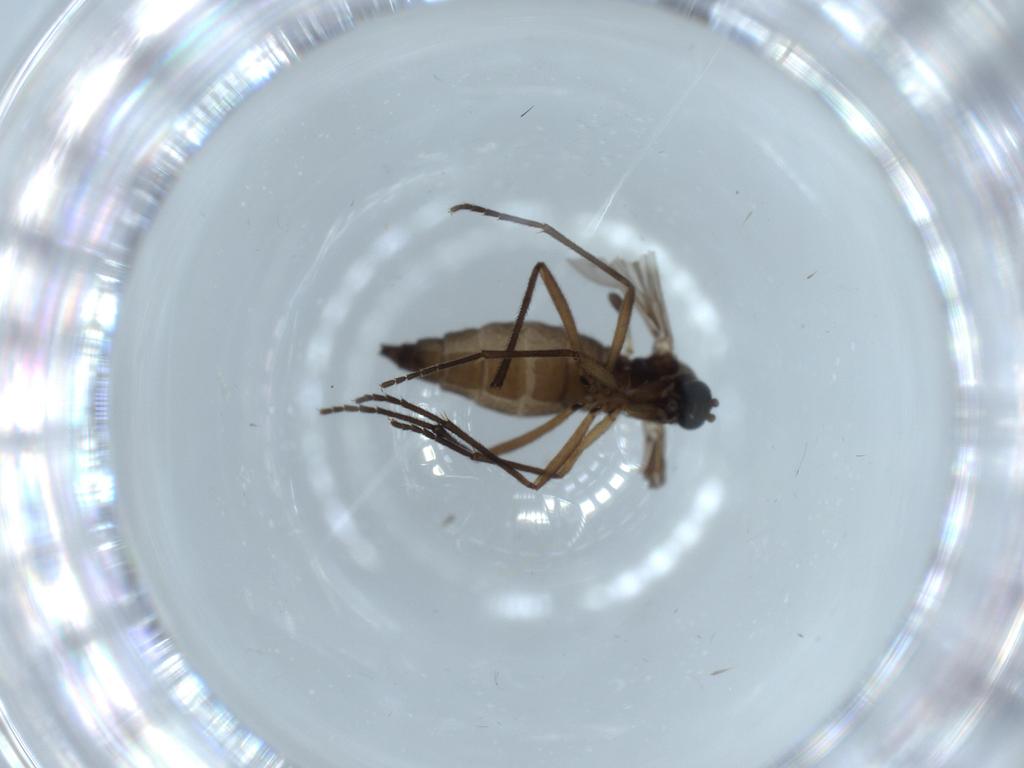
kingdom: Animalia
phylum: Arthropoda
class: Insecta
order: Diptera
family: Sciaridae
